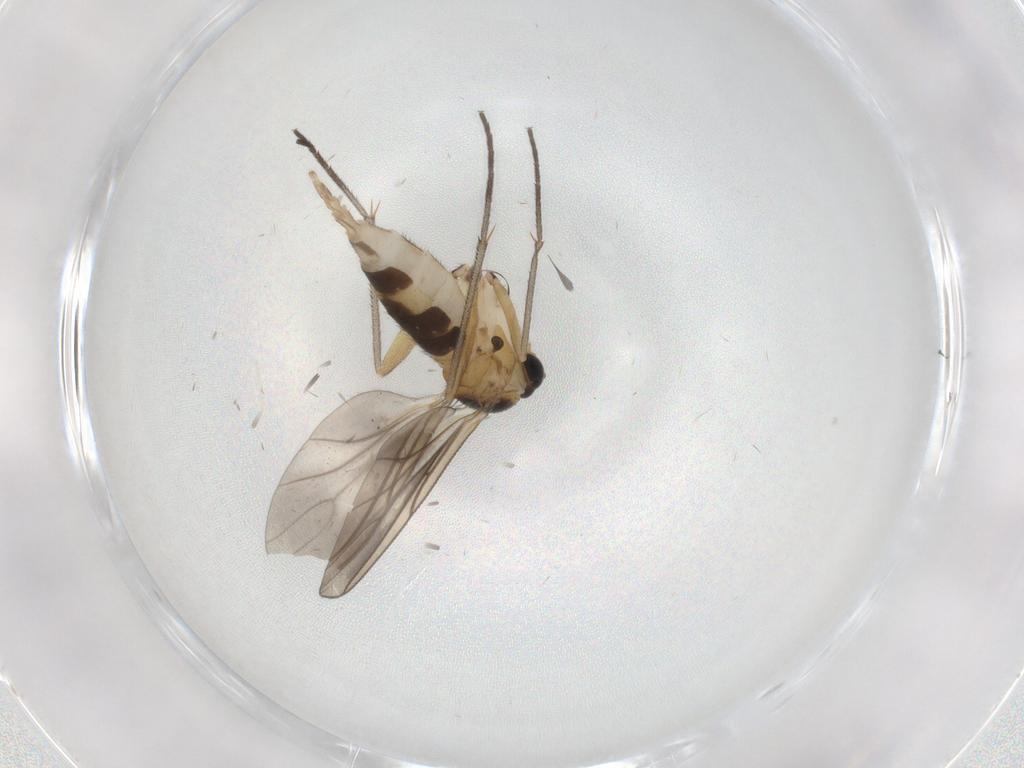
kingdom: Animalia
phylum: Arthropoda
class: Insecta
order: Diptera
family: Sciaridae
